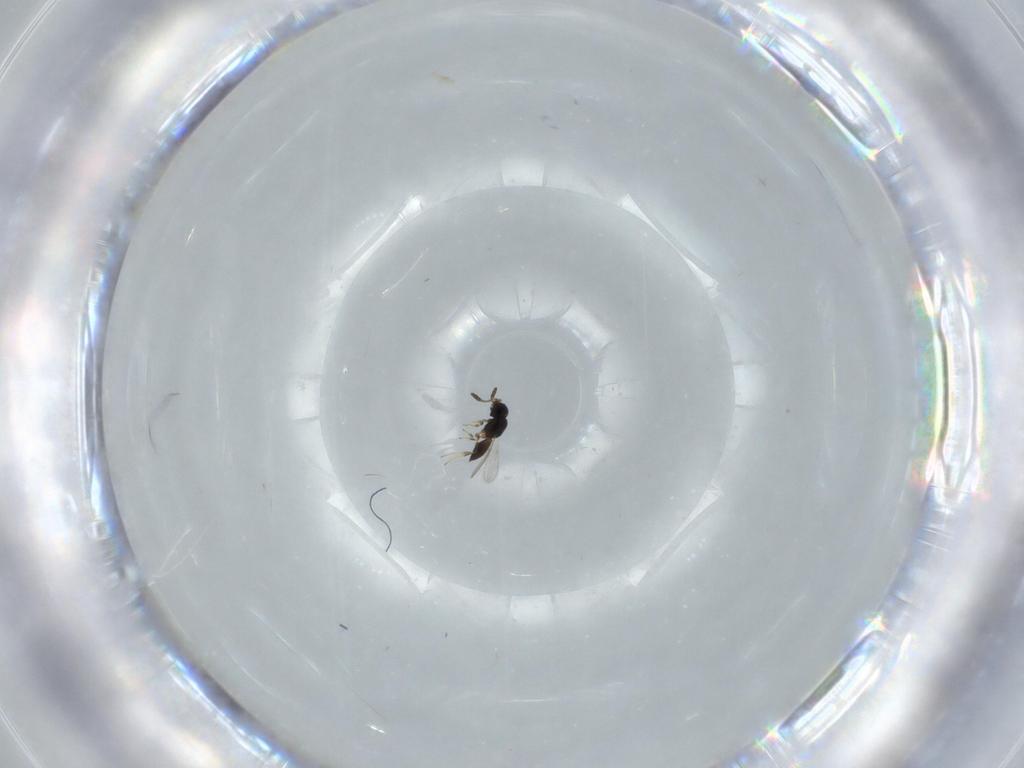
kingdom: Animalia
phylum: Arthropoda
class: Insecta
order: Hymenoptera
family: Scelionidae
